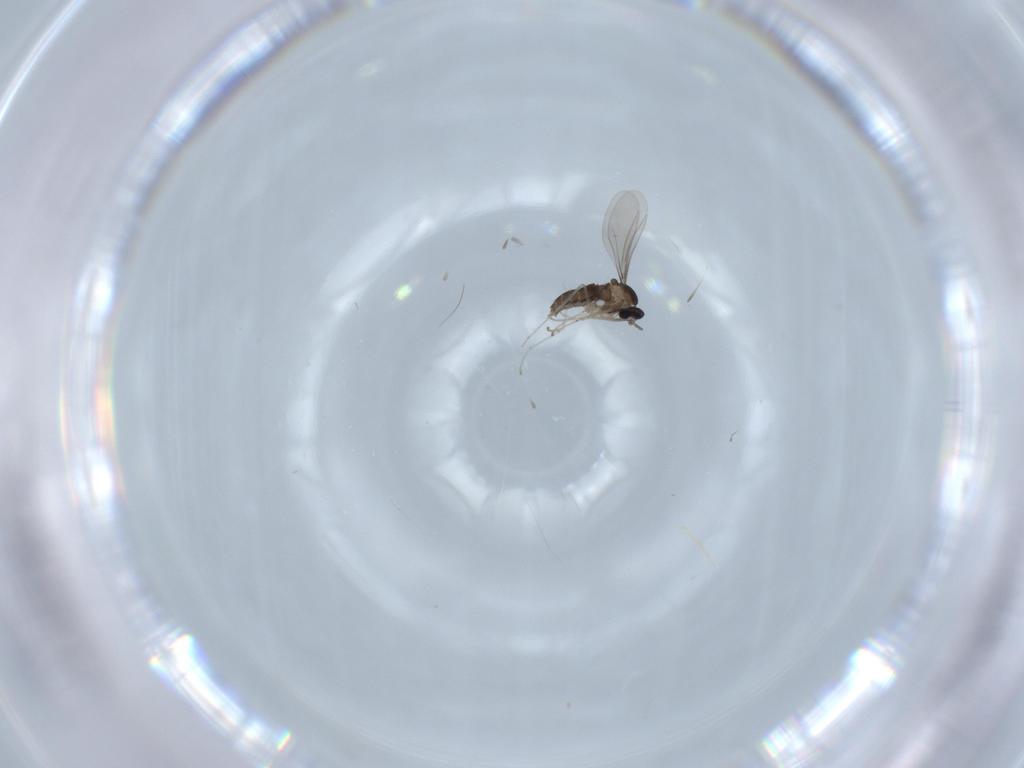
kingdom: Animalia
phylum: Arthropoda
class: Insecta
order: Diptera
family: Cecidomyiidae
